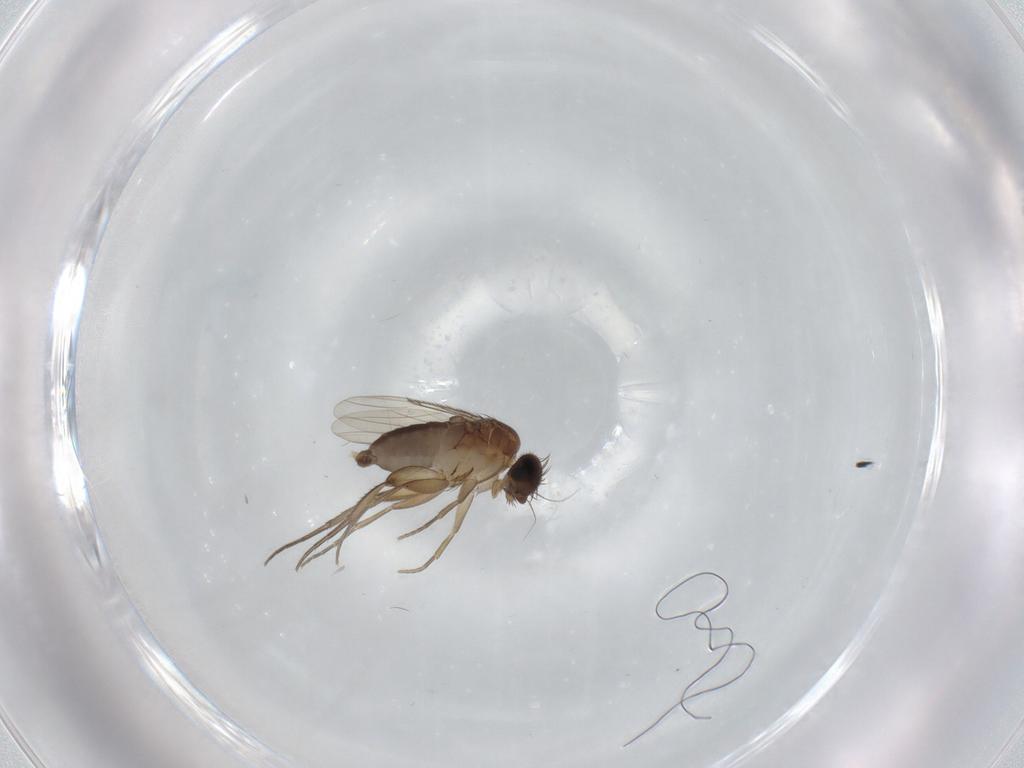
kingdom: Animalia
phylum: Arthropoda
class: Insecta
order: Diptera
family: Phoridae
